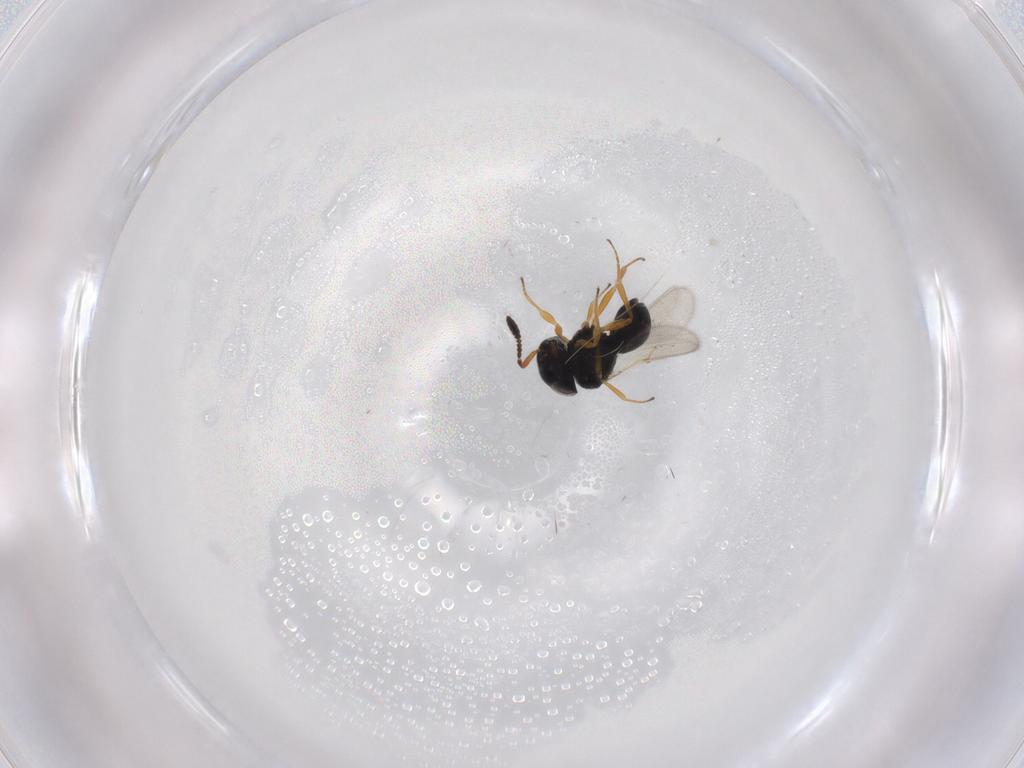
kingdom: Animalia
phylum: Arthropoda
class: Insecta
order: Hymenoptera
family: Scelionidae
